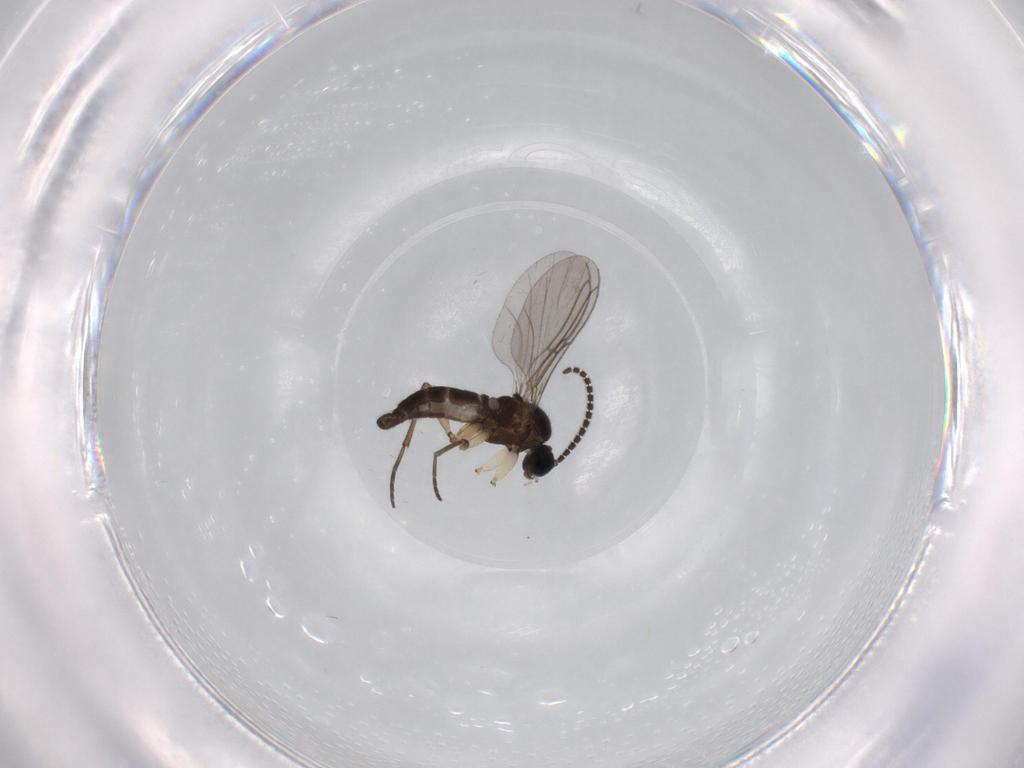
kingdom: Animalia
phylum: Arthropoda
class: Insecta
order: Diptera
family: Sciaridae
